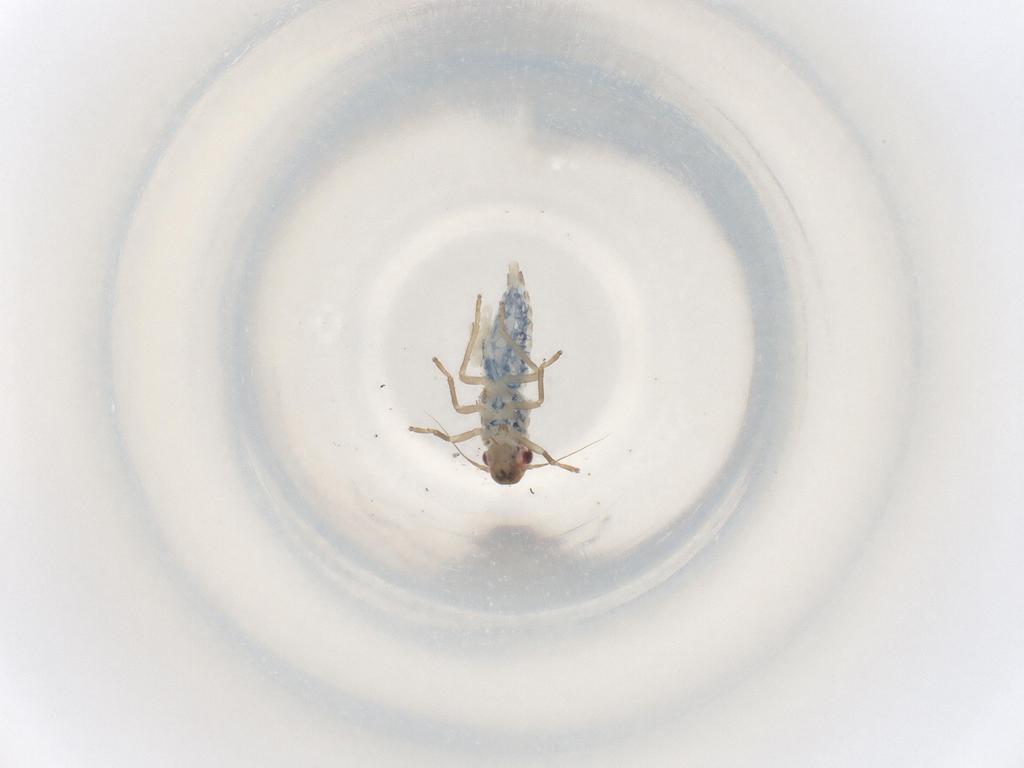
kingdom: Animalia
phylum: Arthropoda
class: Insecta
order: Hemiptera
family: Cicadellidae
